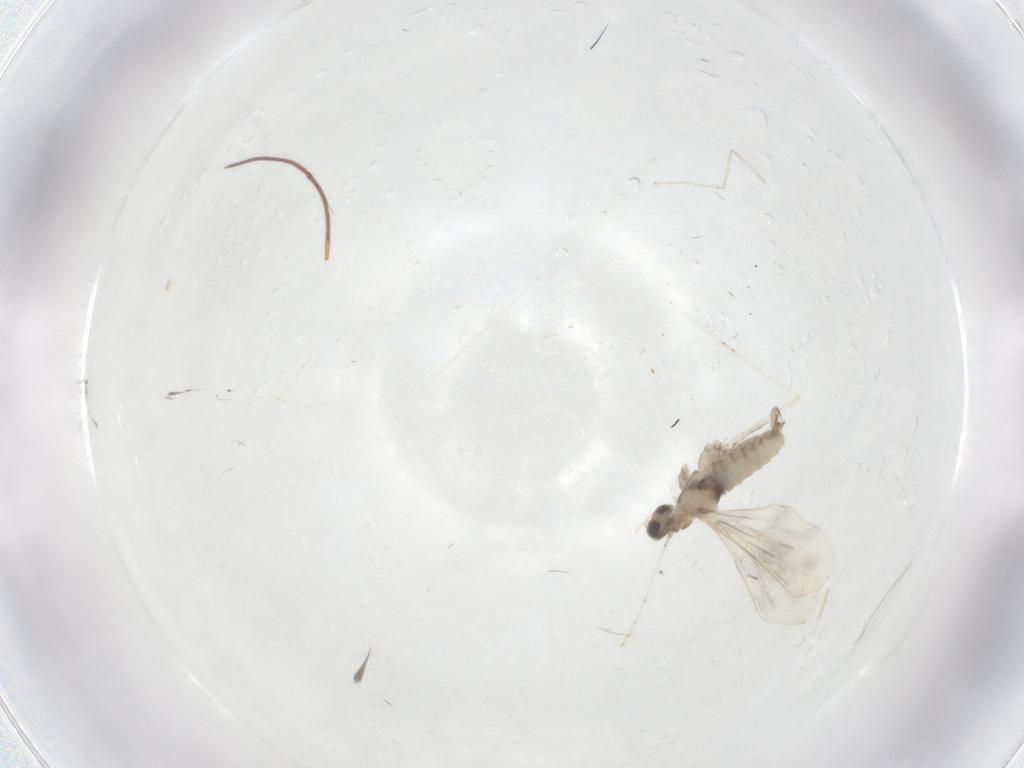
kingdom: Animalia
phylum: Arthropoda
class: Insecta
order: Diptera
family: Cecidomyiidae
